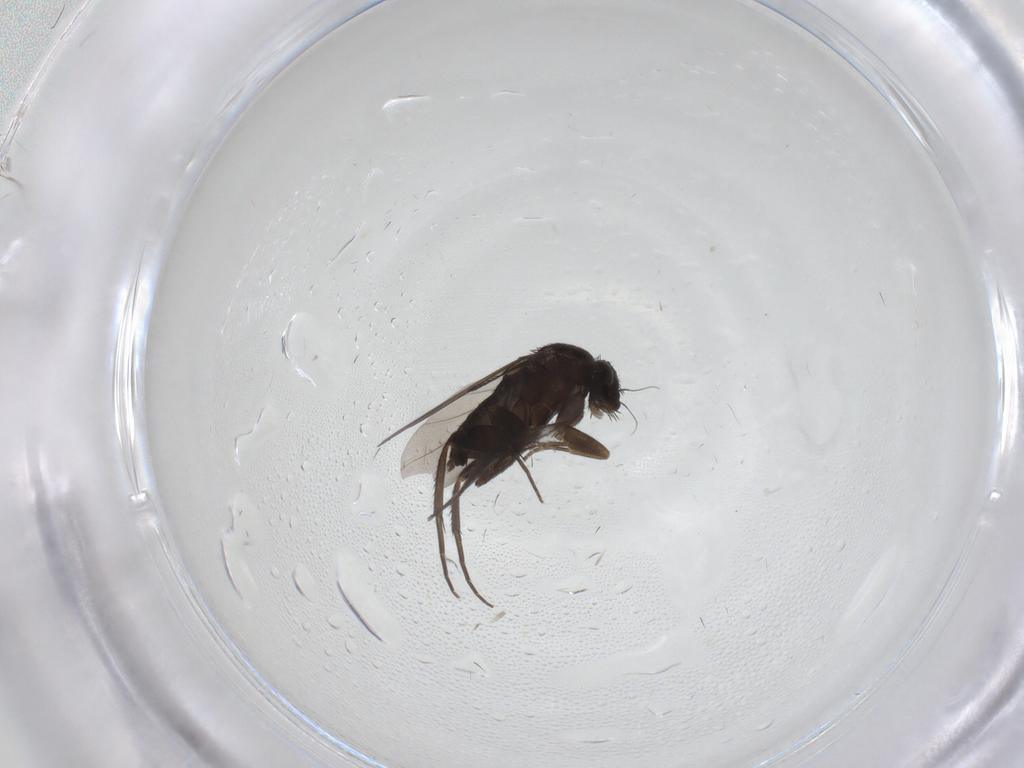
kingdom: Animalia
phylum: Arthropoda
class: Insecta
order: Diptera
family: Phoridae
